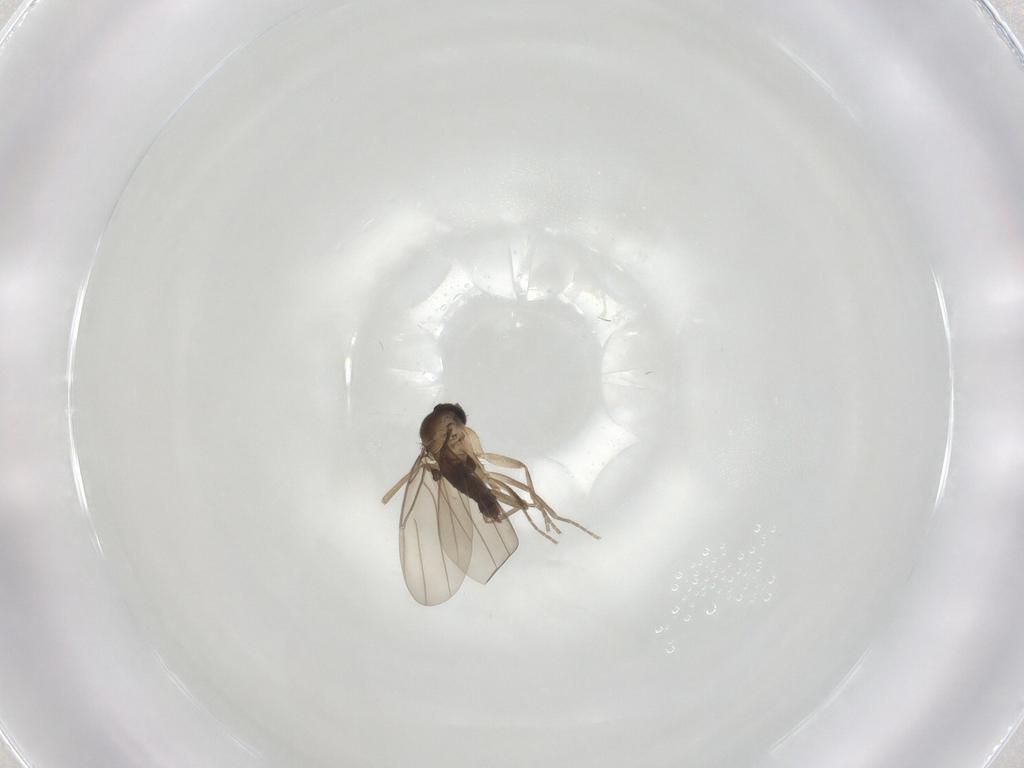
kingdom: Animalia
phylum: Arthropoda
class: Insecta
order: Diptera
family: Phoridae
